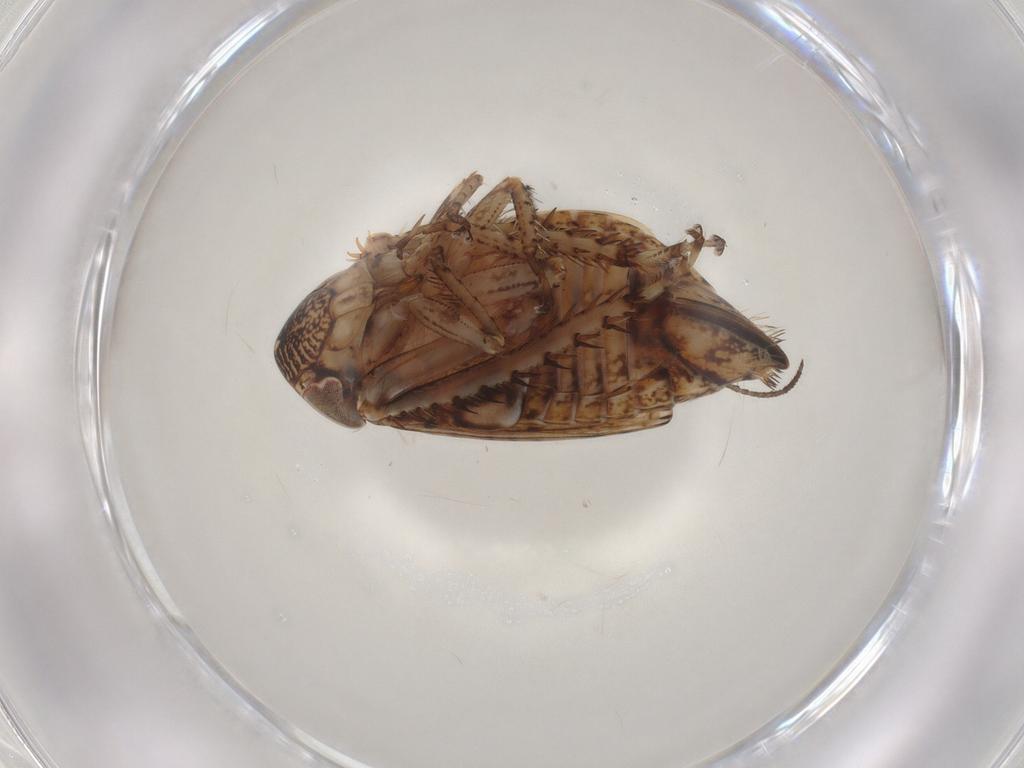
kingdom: Animalia
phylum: Arthropoda
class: Insecta
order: Hemiptera
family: Cicadellidae
